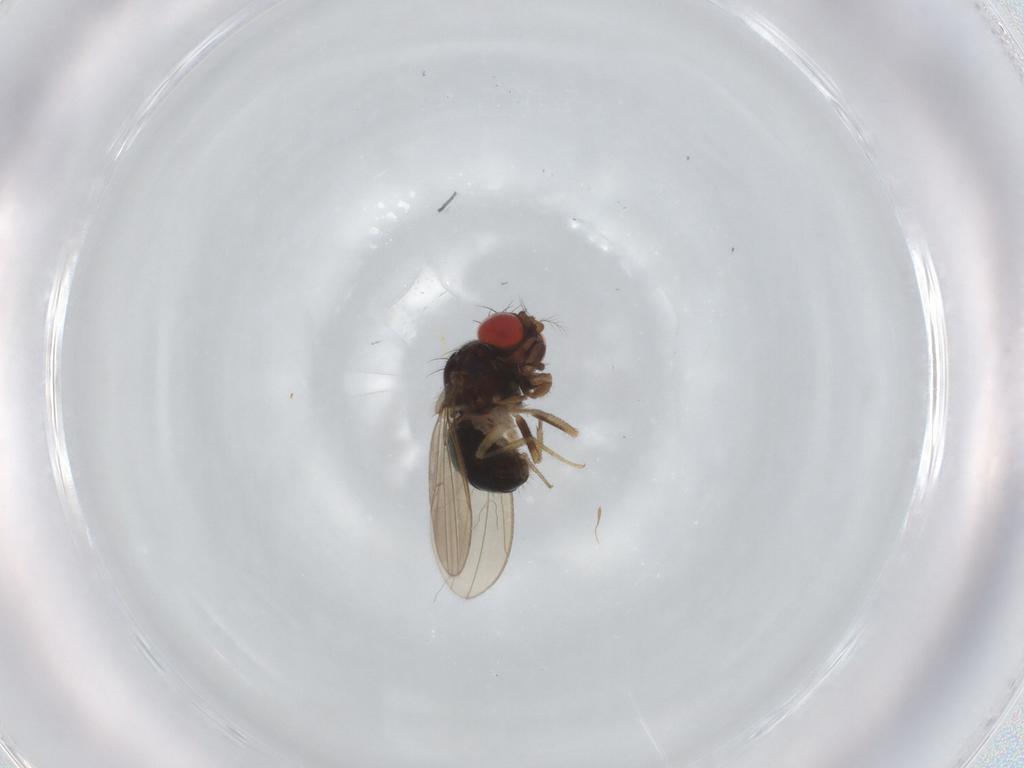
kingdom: Animalia
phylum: Arthropoda
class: Insecta
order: Diptera
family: Drosophilidae
